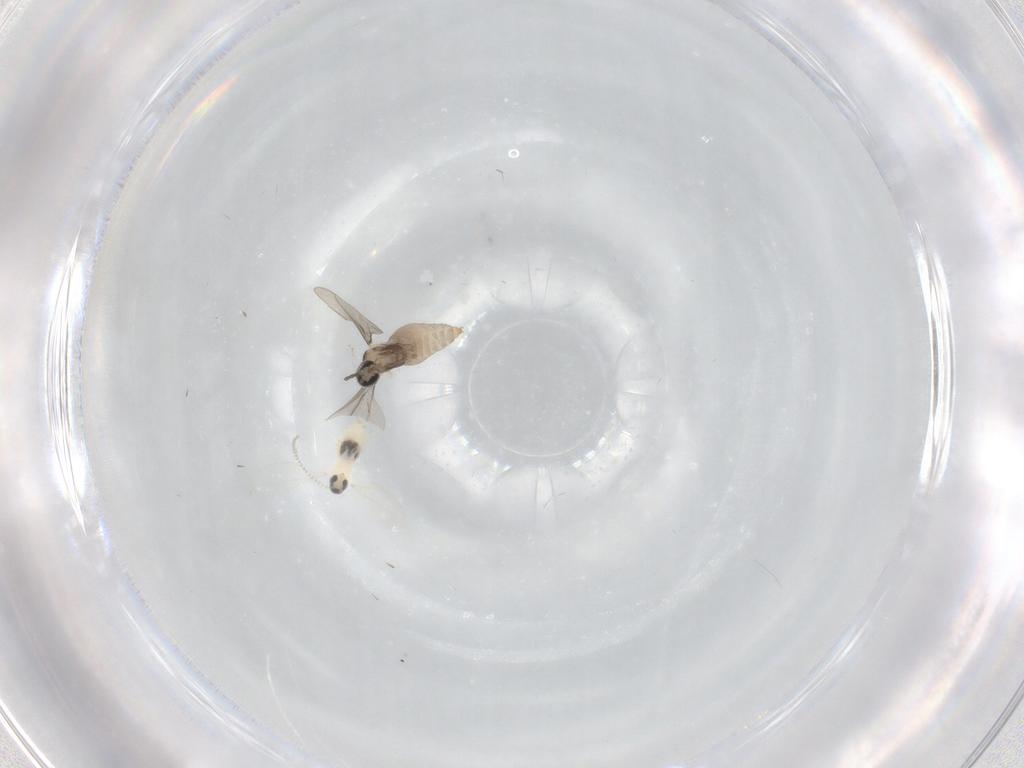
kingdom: Animalia
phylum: Arthropoda
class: Insecta
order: Diptera
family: Cecidomyiidae
